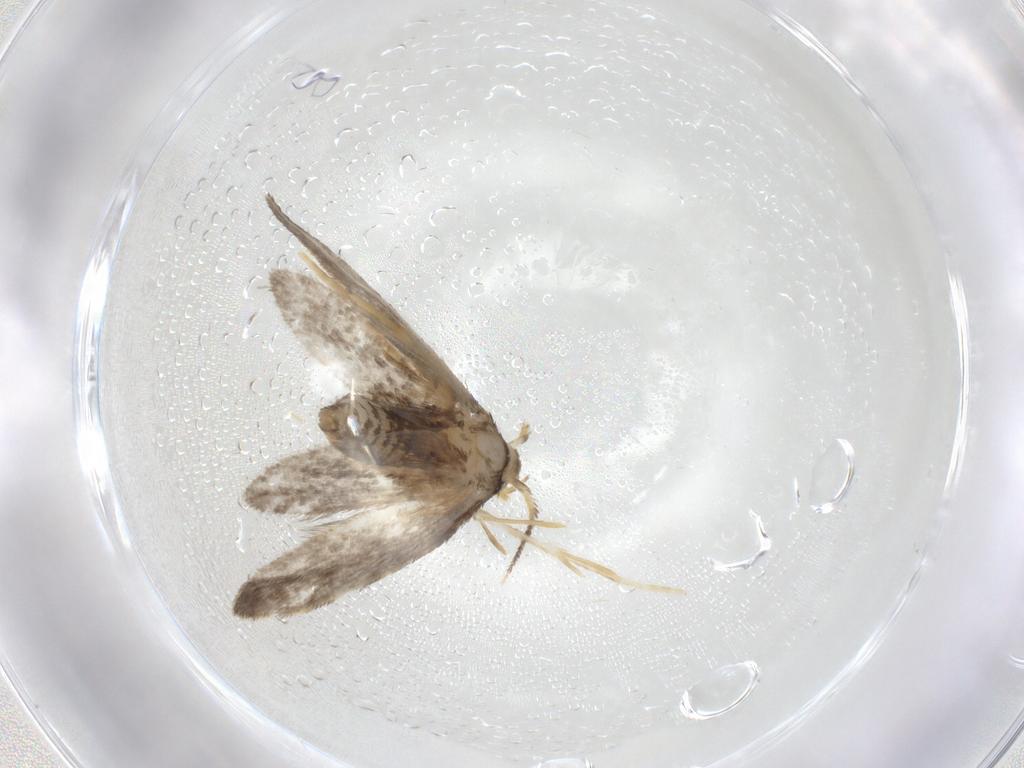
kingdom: Animalia
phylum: Arthropoda
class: Insecta
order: Lepidoptera
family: Psychidae
